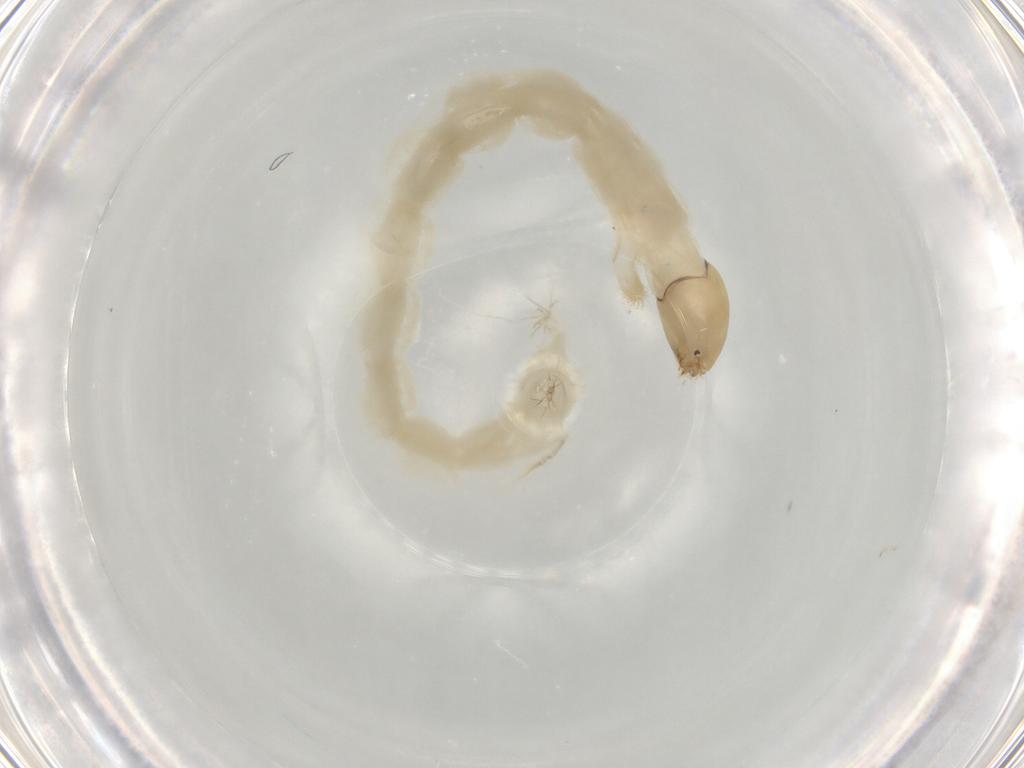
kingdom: Animalia
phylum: Arthropoda
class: Insecta
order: Diptera
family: Chironomidae
